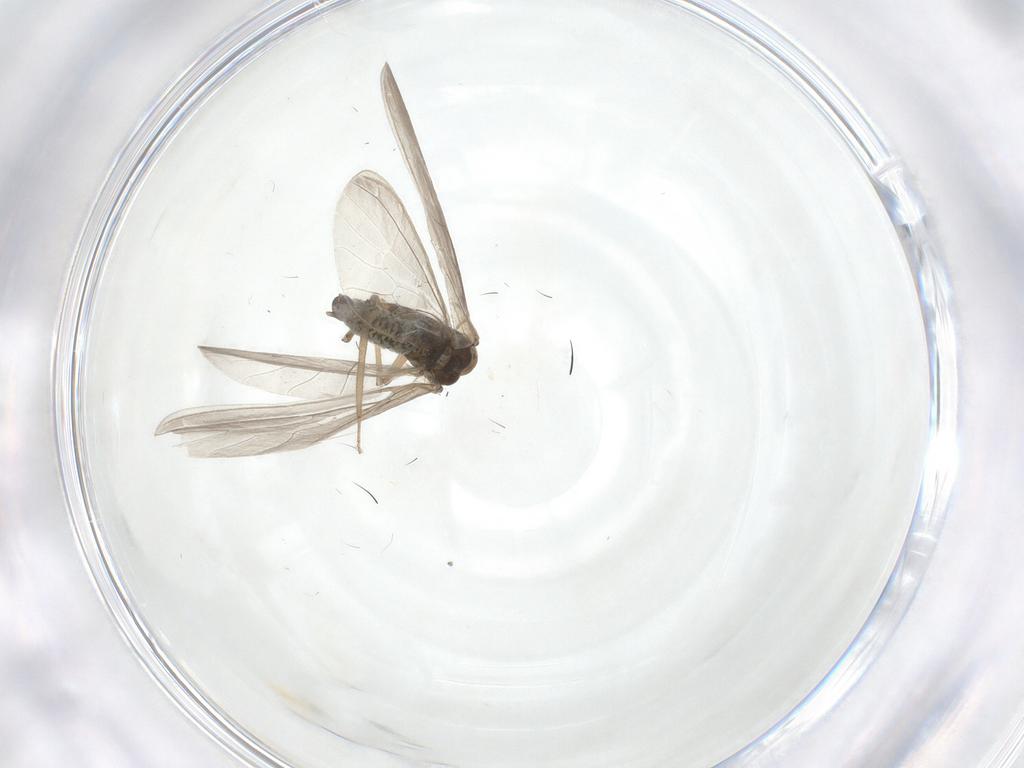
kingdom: Animalia
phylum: Arthropoda
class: Insecta
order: Neuroptera
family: Coniopterygidae
